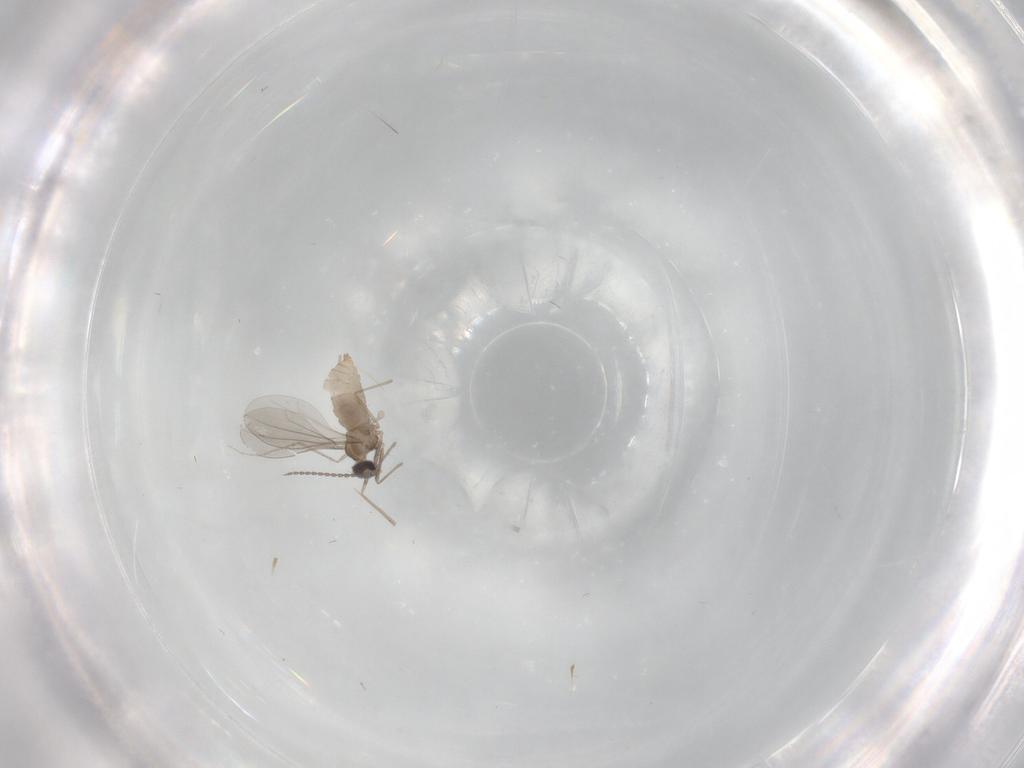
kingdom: Animalia
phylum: Arthropoda
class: Insecta
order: Diptera
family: Cecidomyiidae
